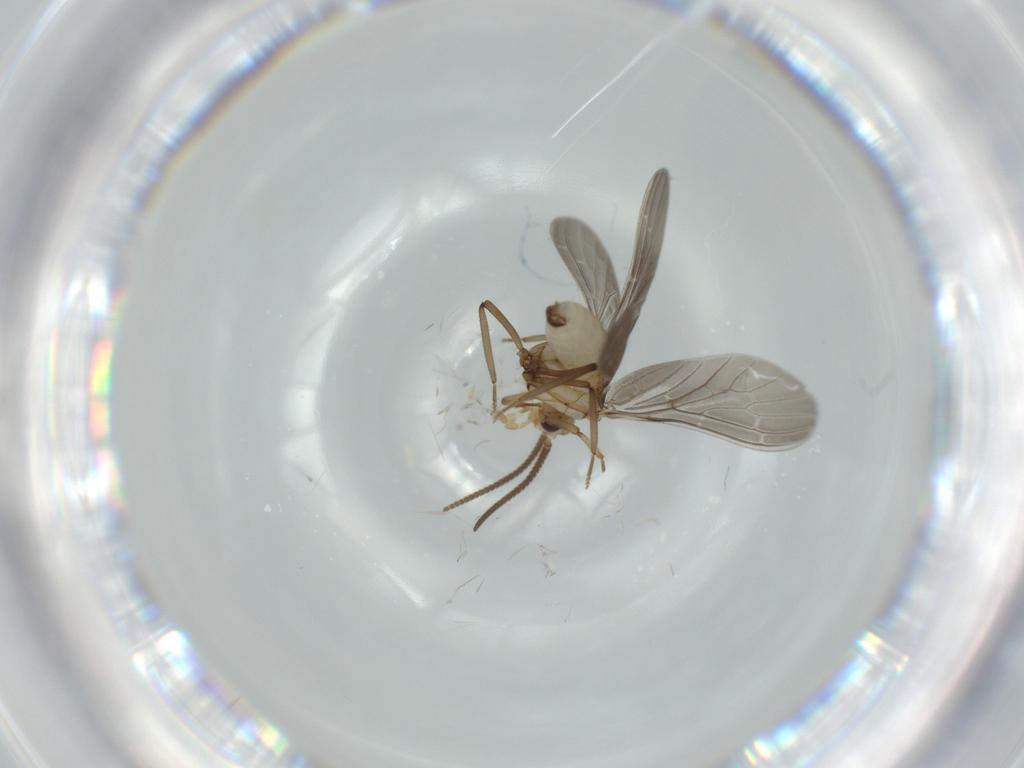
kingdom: Animalia
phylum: Arthropoda
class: Insecta
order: Neuroptera
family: Coniopterygidae
